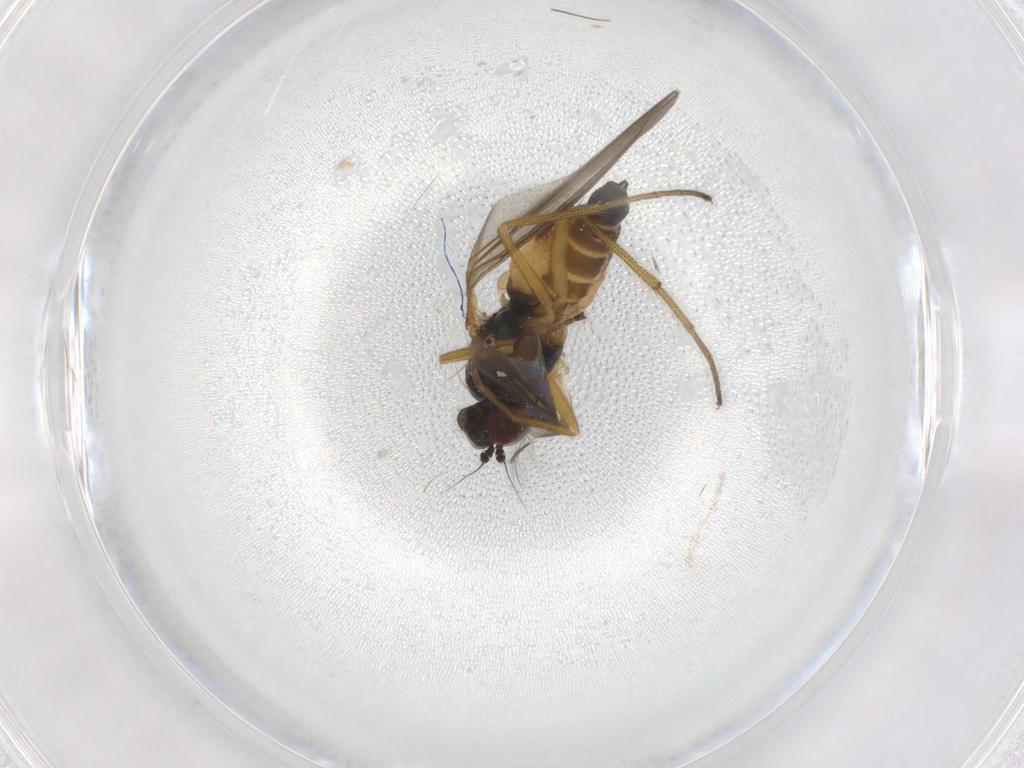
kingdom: Animalia
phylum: Arthropoda
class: Insecta
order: Diptera
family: Dolichopodidae
